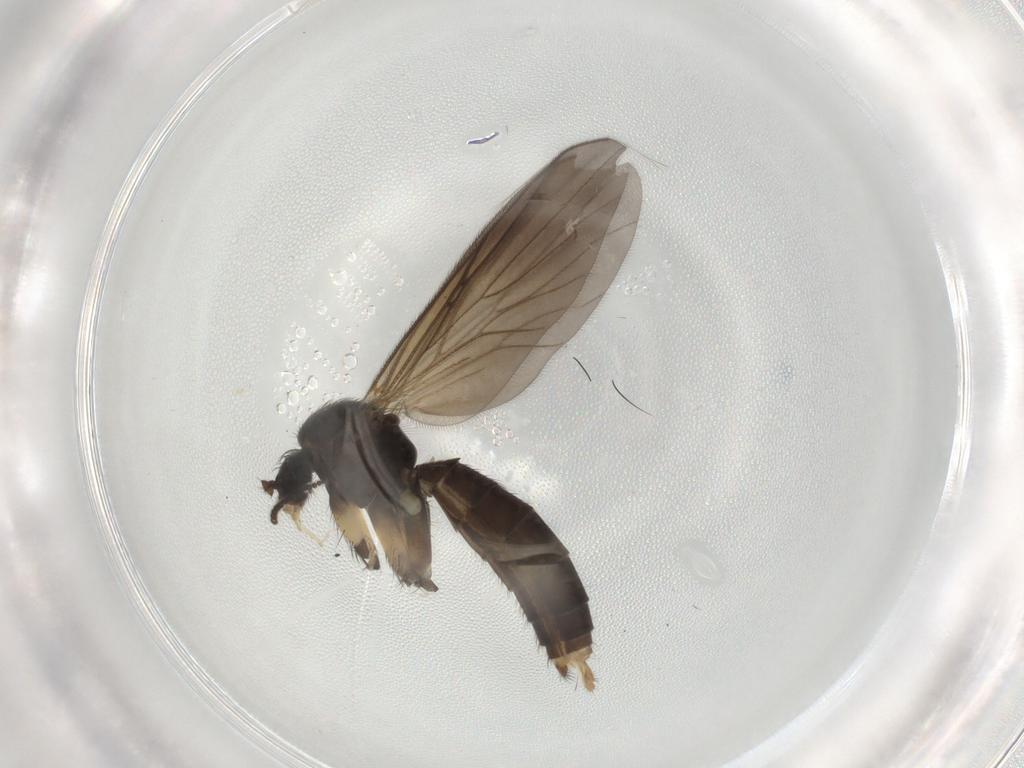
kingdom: Animalia
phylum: Arthropoda
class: Insecta
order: Diptera
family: Mycetophilidae
